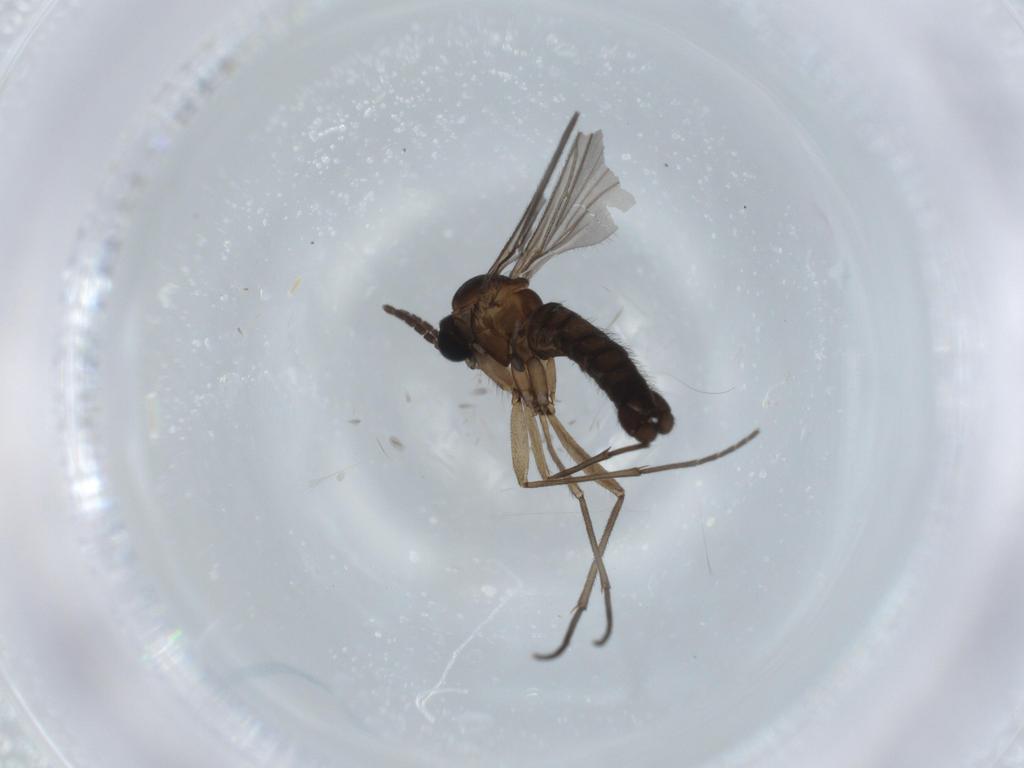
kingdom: Animalia
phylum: Arthropoda
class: Insecta
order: Diptera
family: Sciaridae
